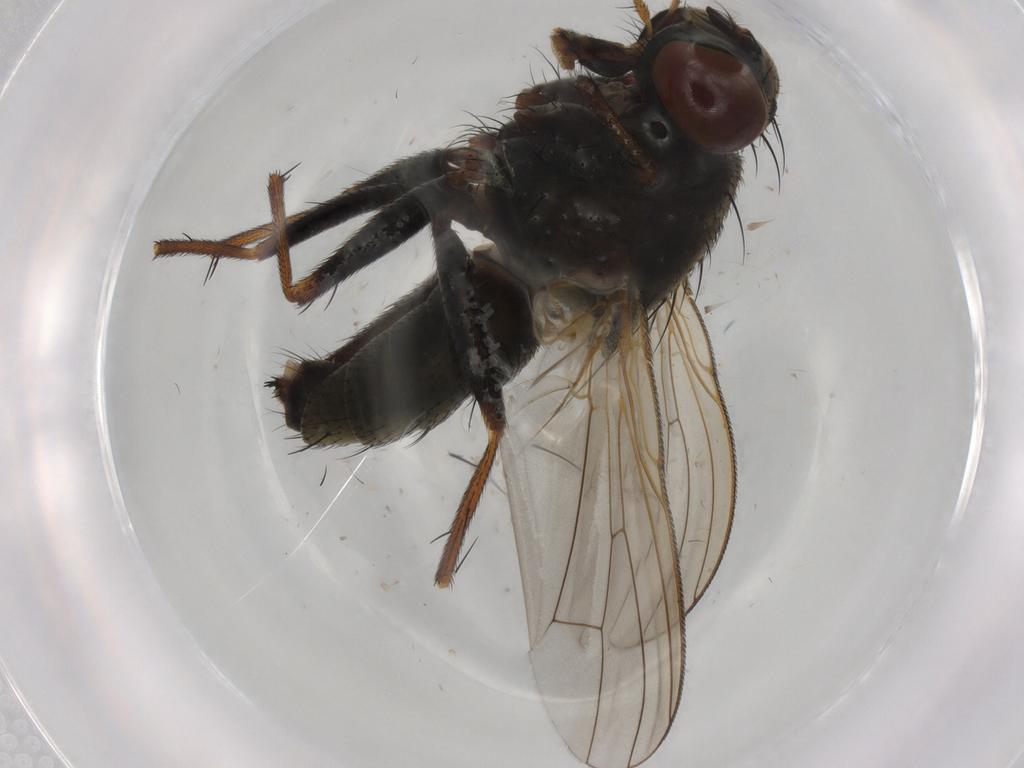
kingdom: Animalia
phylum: Arthropoda
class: Insecta
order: Diptera
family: Muscidae
